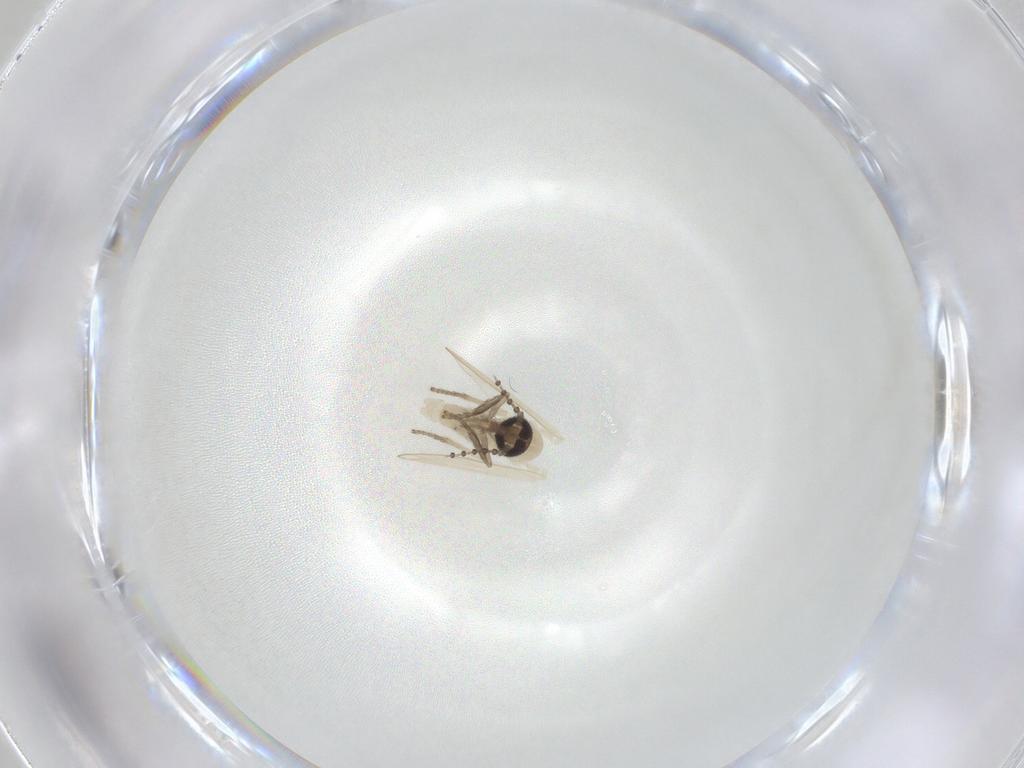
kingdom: Animalia
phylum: Arthropoda
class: Insecta
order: Diptera
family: Psychodidae
